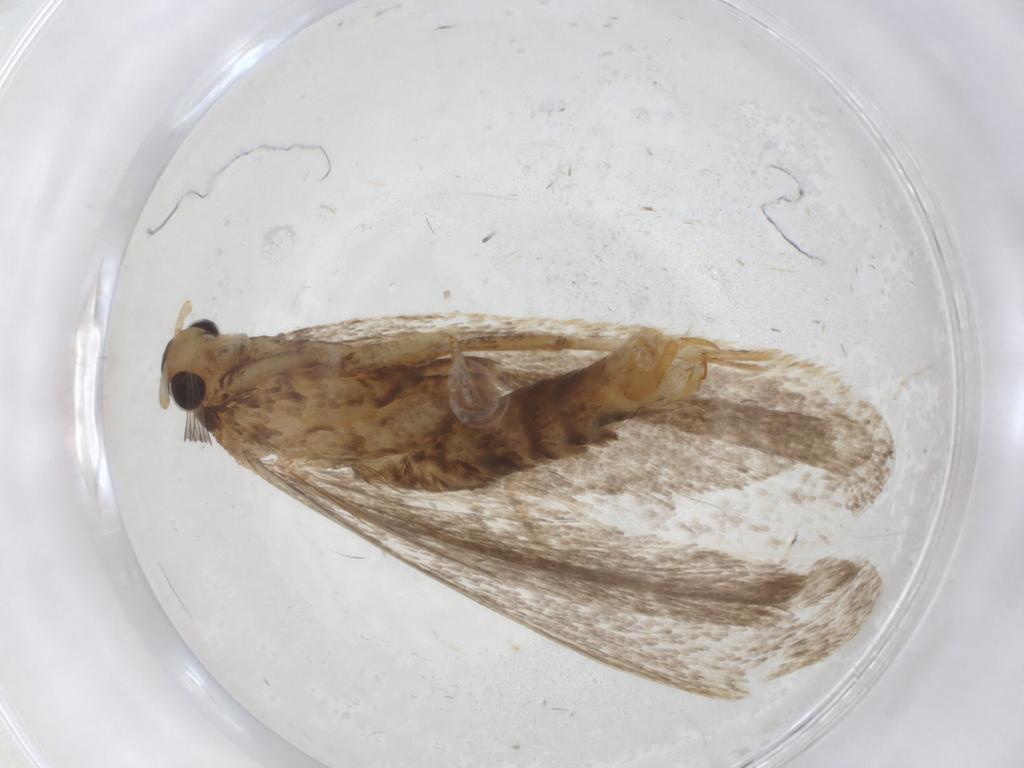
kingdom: Animalia
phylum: Arthropoda
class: Insecta
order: Lepidoptera
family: Lecithoceridae
